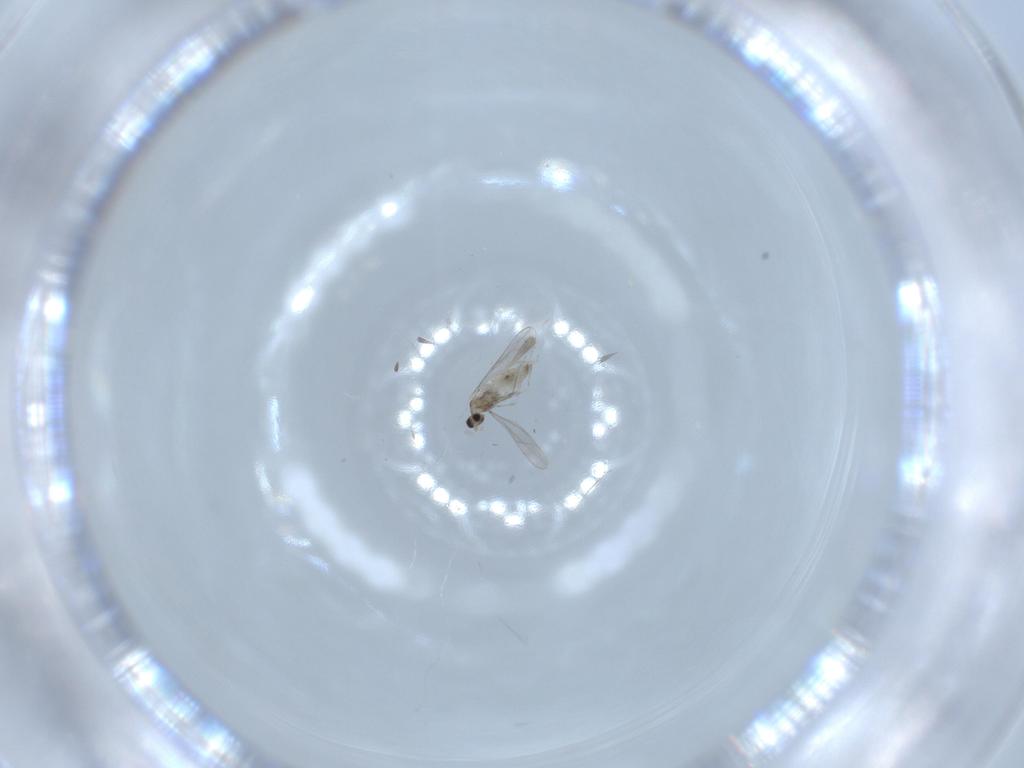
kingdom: Animalia
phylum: Arthropoda
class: Insecta
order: Diptera
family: Cecidomyiidae
